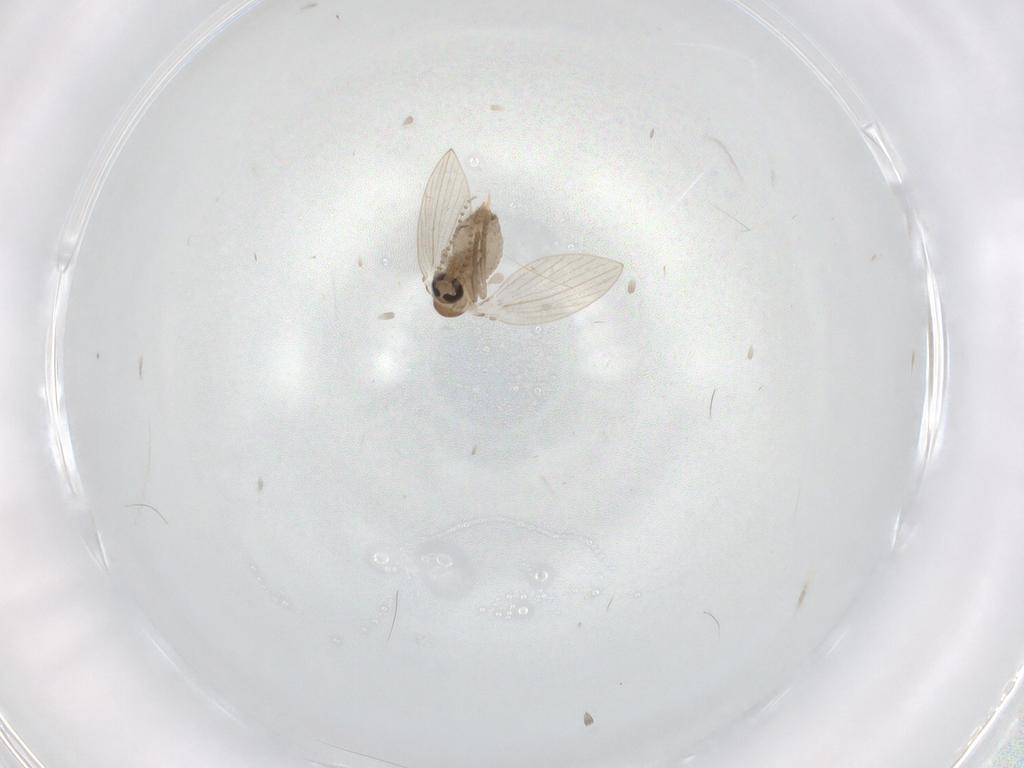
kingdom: Animalia
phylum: Arthropoda
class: Insecta
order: Diptera
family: Psychodidae
